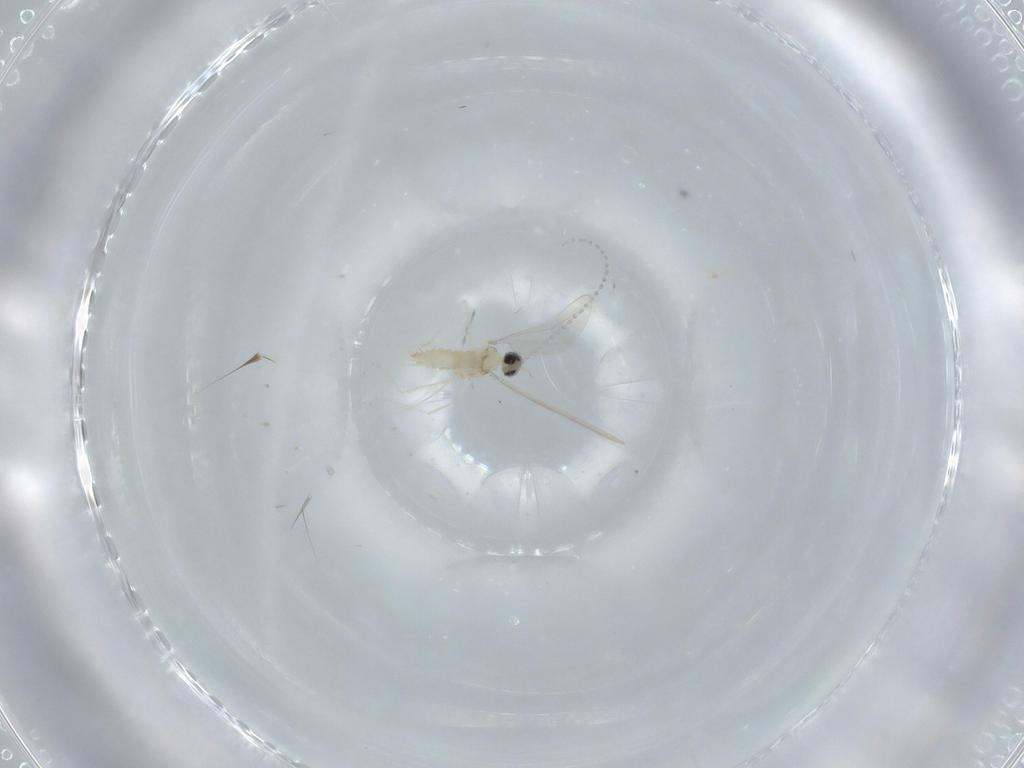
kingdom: Animalia
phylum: Arthropoda
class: Insecta
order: Diptera
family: Cecidomyiidae
